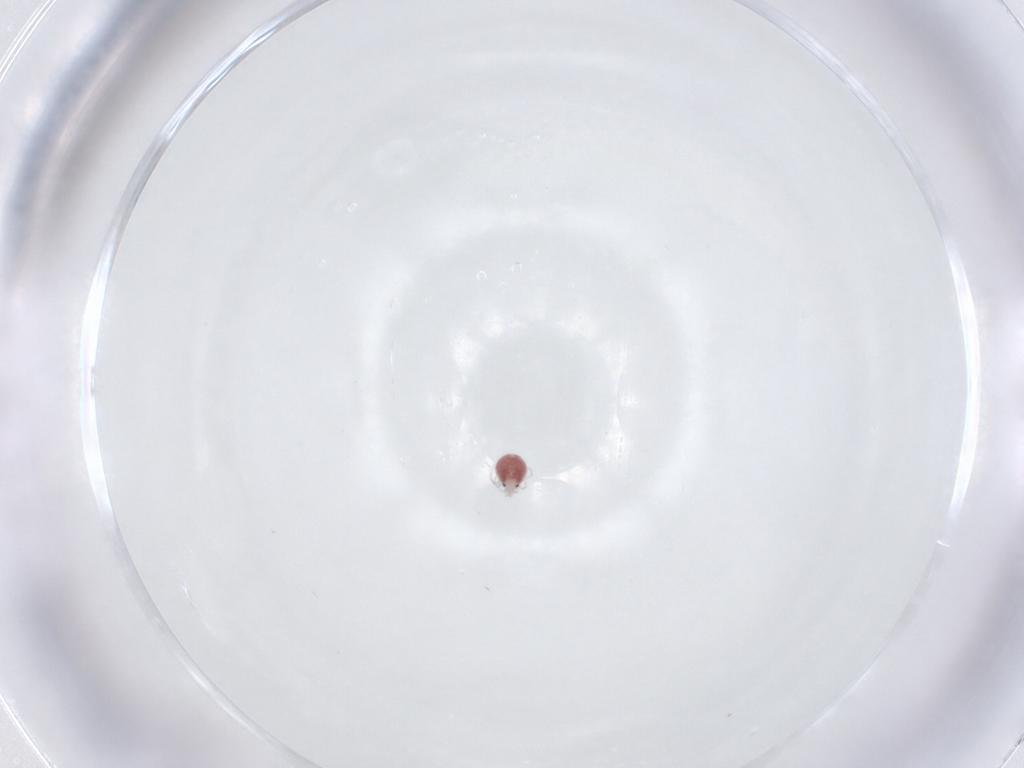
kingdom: Animalia
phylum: Arthropoda
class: Arachnida
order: Trombidiformes
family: Pionidae
